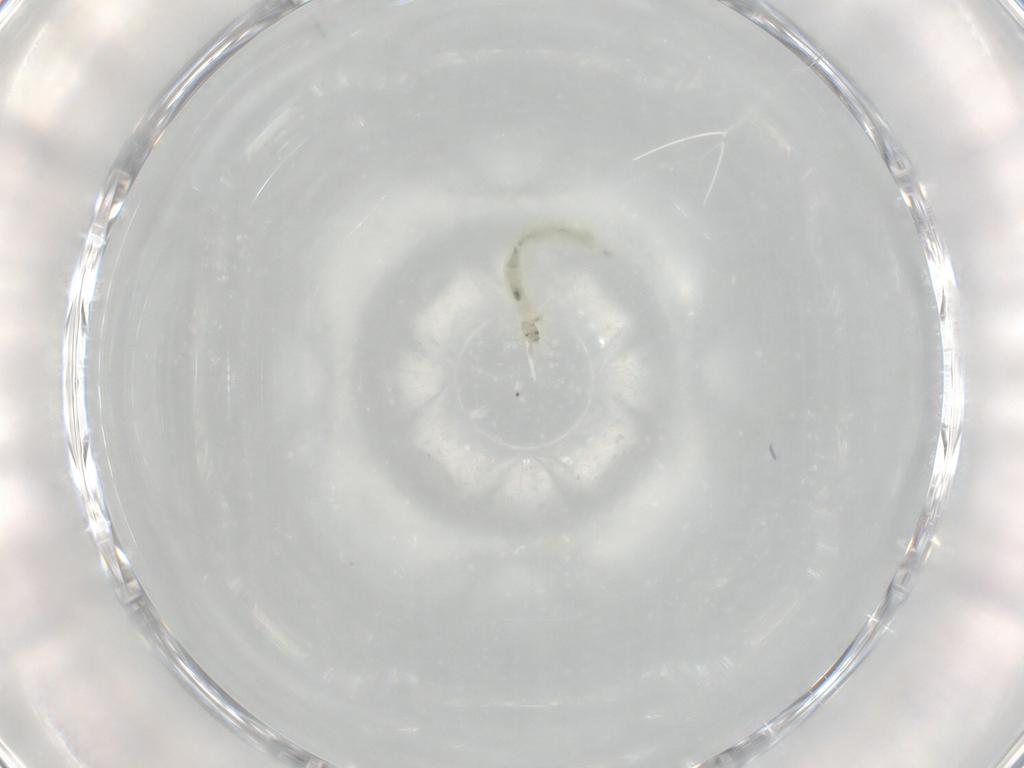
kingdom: Animalia
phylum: Arthropoda
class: Insecta
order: Diptera
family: Chironomidae
